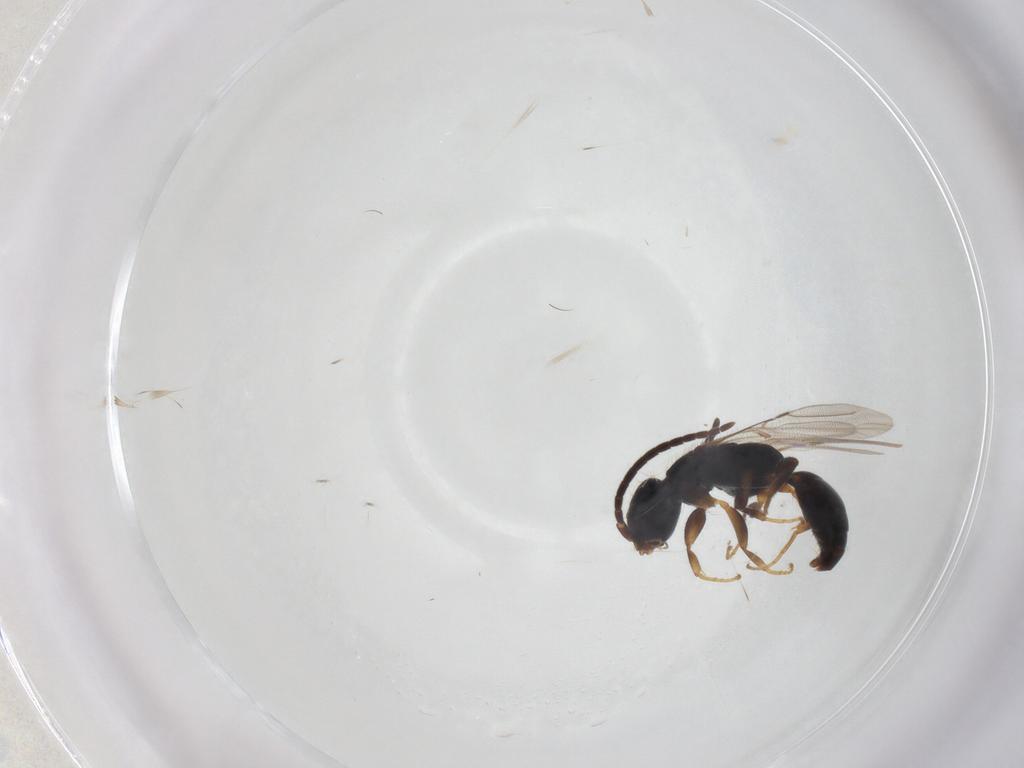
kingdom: Animalia
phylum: Arthropoda
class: Insecta
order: Hymenoptera
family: Bethylidae
